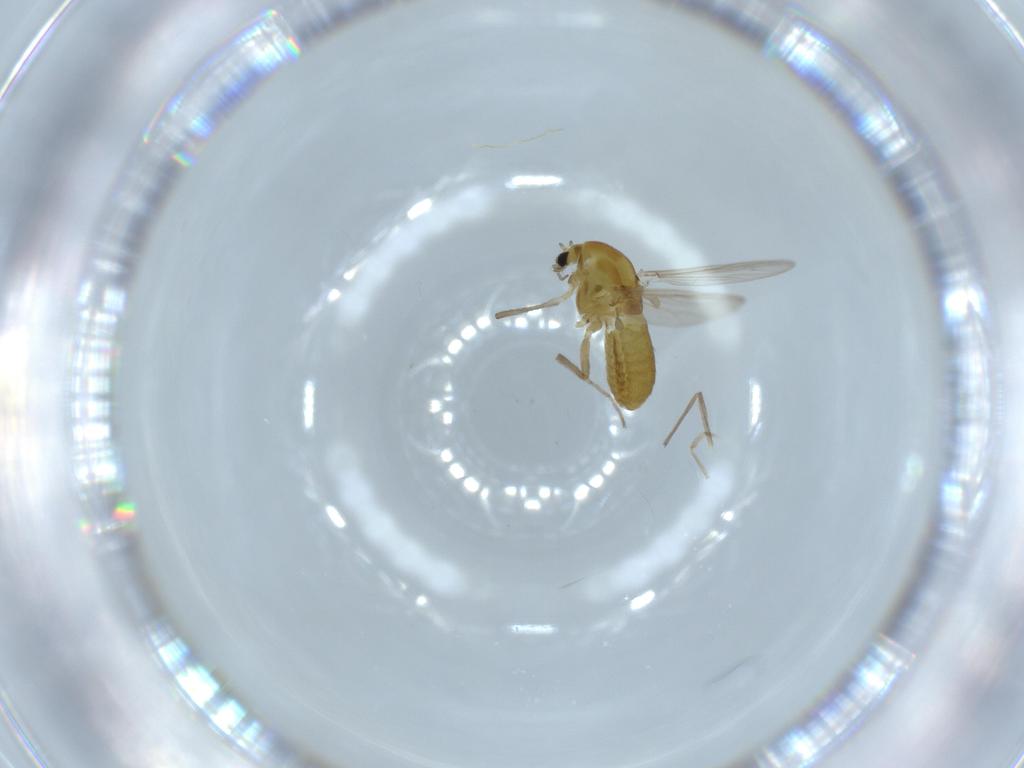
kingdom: Animalia
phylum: Arthropoda
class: Insecta
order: Diptera
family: Chironomidae
